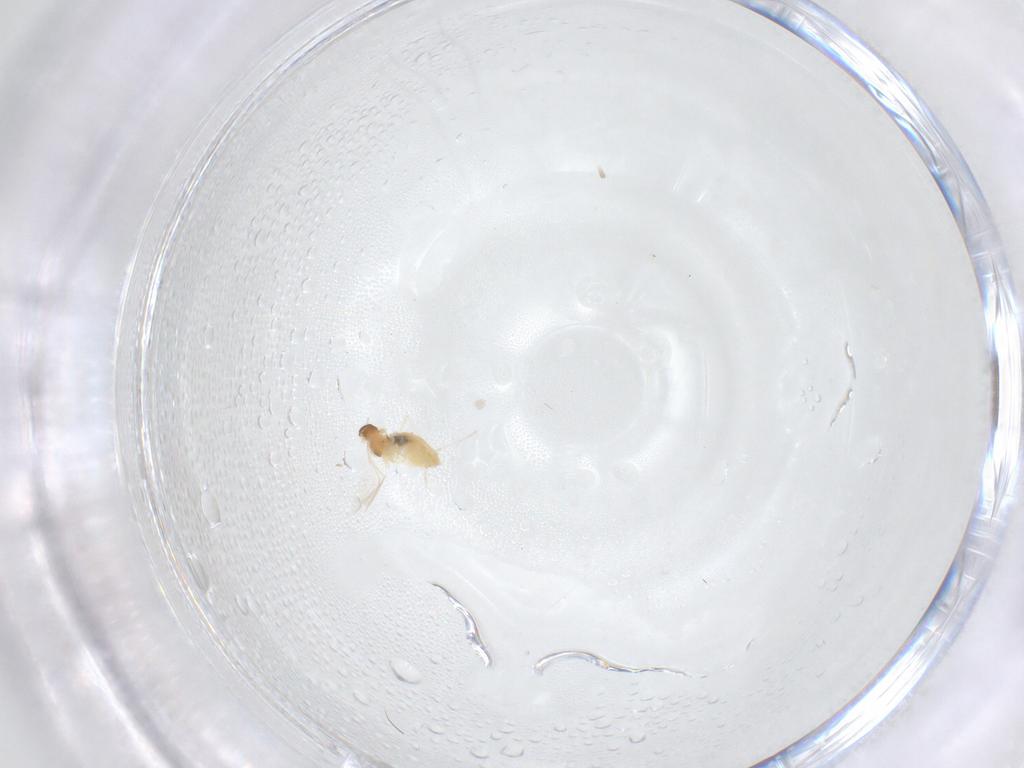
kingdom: Animalia
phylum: Arthropoda
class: Insecta
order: Diptera
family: Cecidomyiidae
